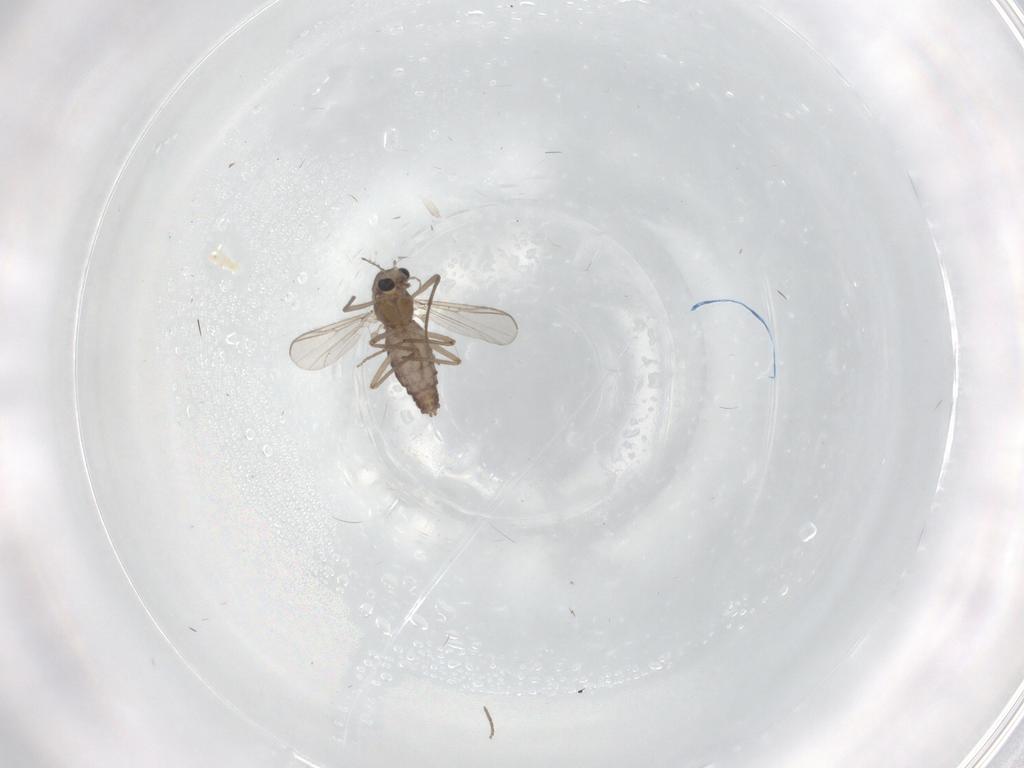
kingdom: Animalia
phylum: Arthropoda
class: Insecta
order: Diptera
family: Chironomidae
